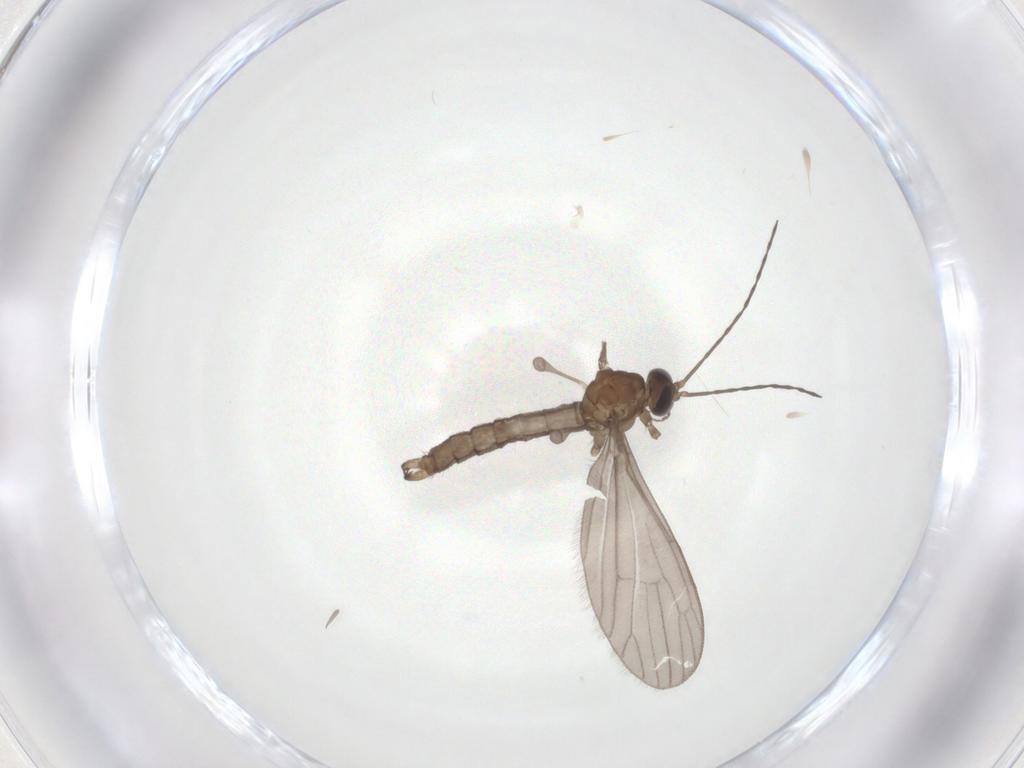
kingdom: Animalia
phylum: Arthropoda
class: Insecta
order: Diptera
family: Limoniidae
